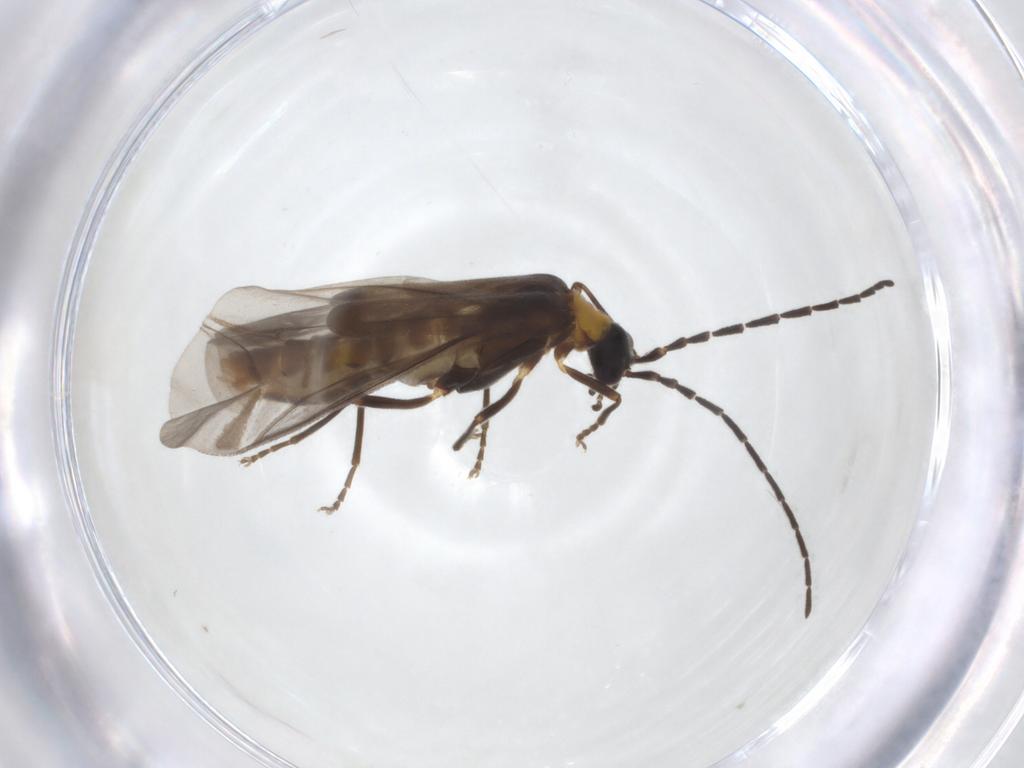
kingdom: Animalia
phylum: Arthropoda
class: Insecta
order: Coleoptera
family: Cantharidae
